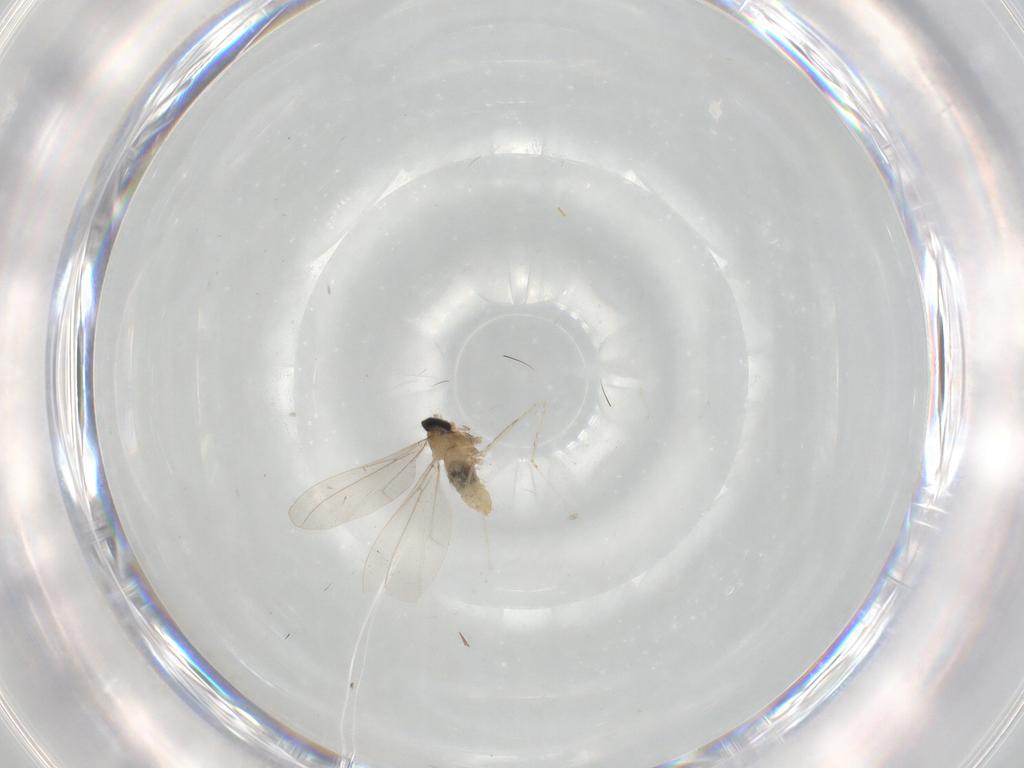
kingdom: Animalia
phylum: Arthropoda
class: Insecta
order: Diptera
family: Cecidomyiidae
